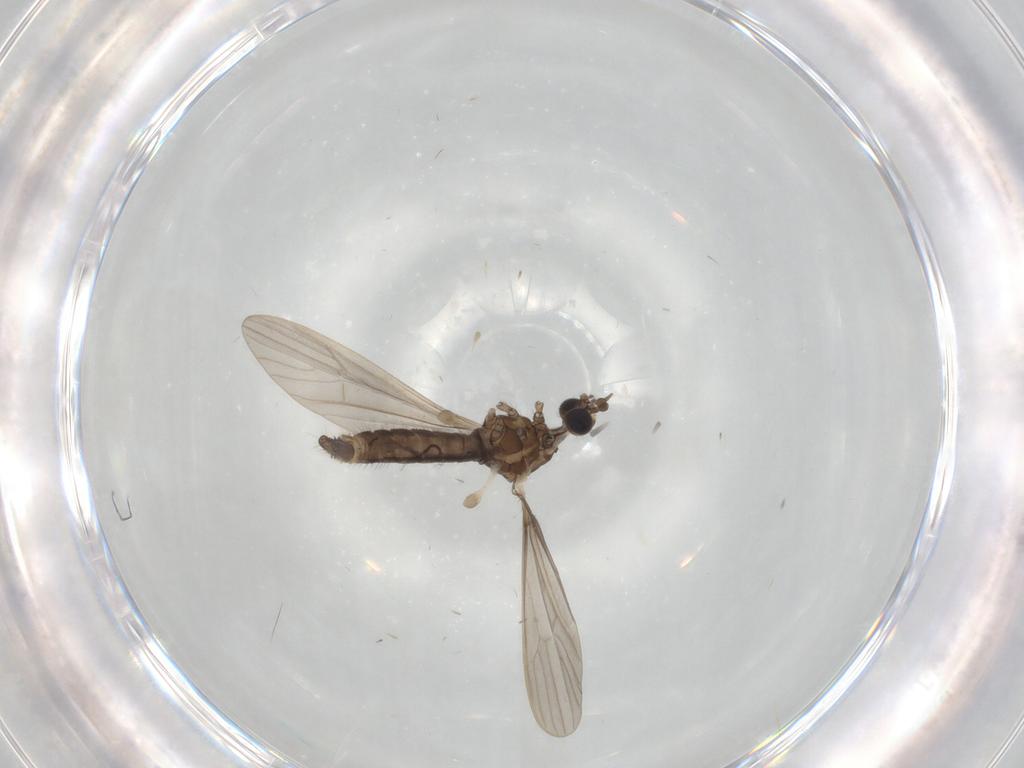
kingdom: Animalia
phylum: Arthropoda
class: Insecta
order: Diptera
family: Limoniidae
